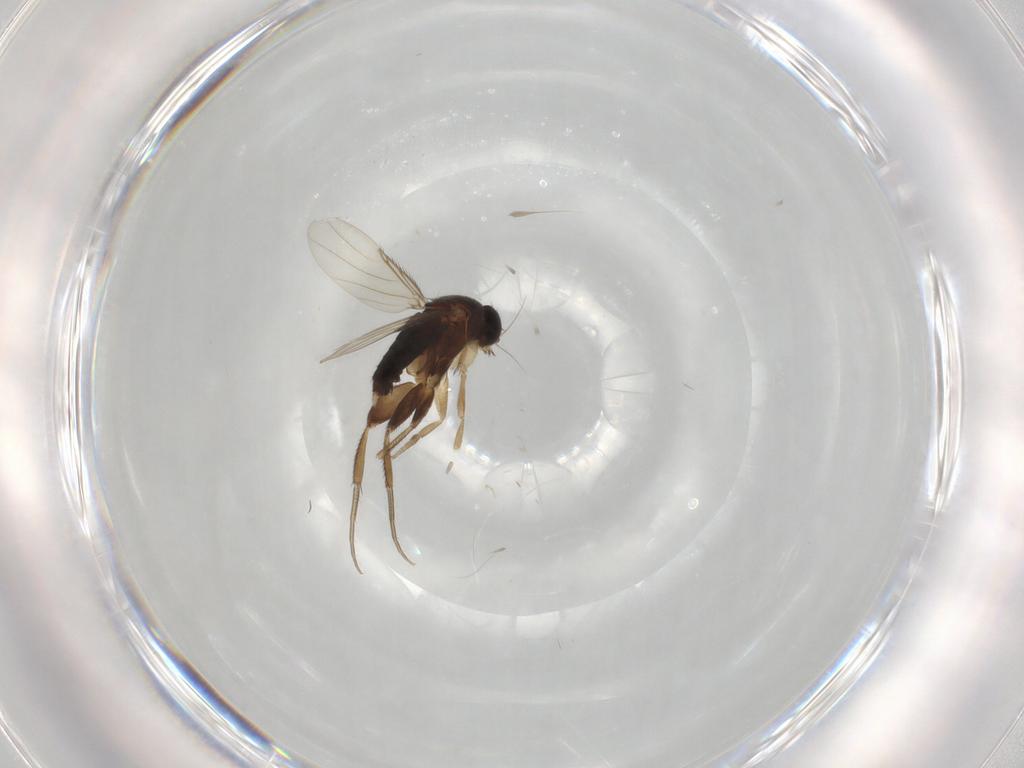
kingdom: Animalia
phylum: Arthropoda
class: Insecta
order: Diptera
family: Phoridae
